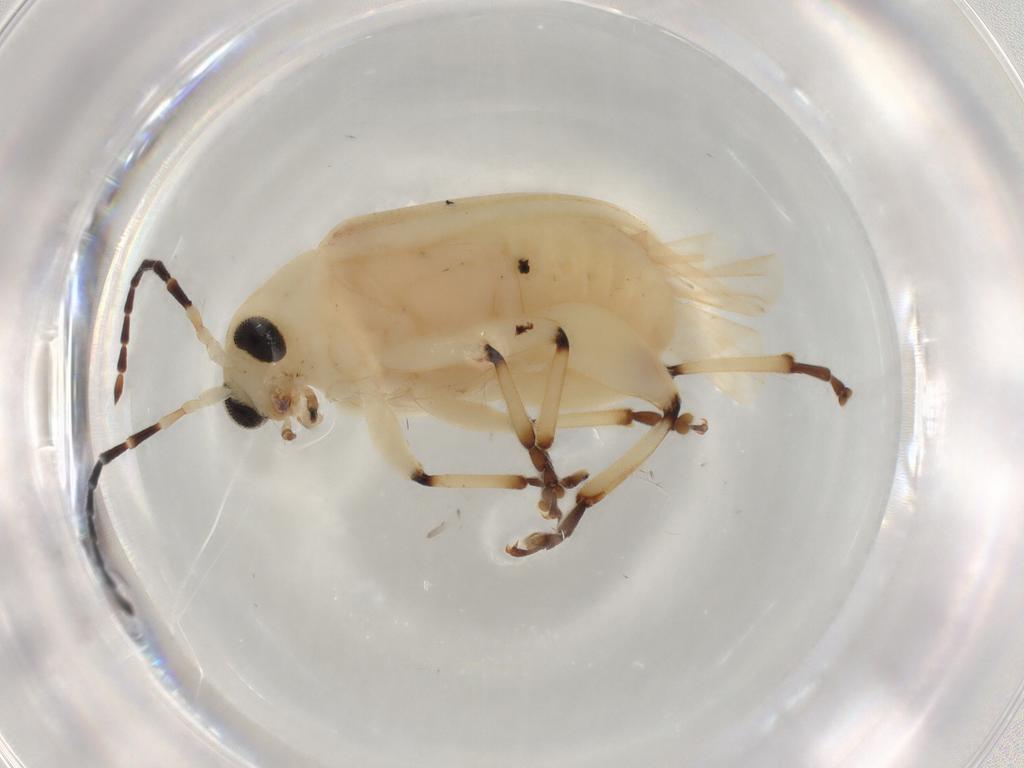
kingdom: Animalia
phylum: Arthropoda
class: Insecta
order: Coleoptera
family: Chrysomelidae
